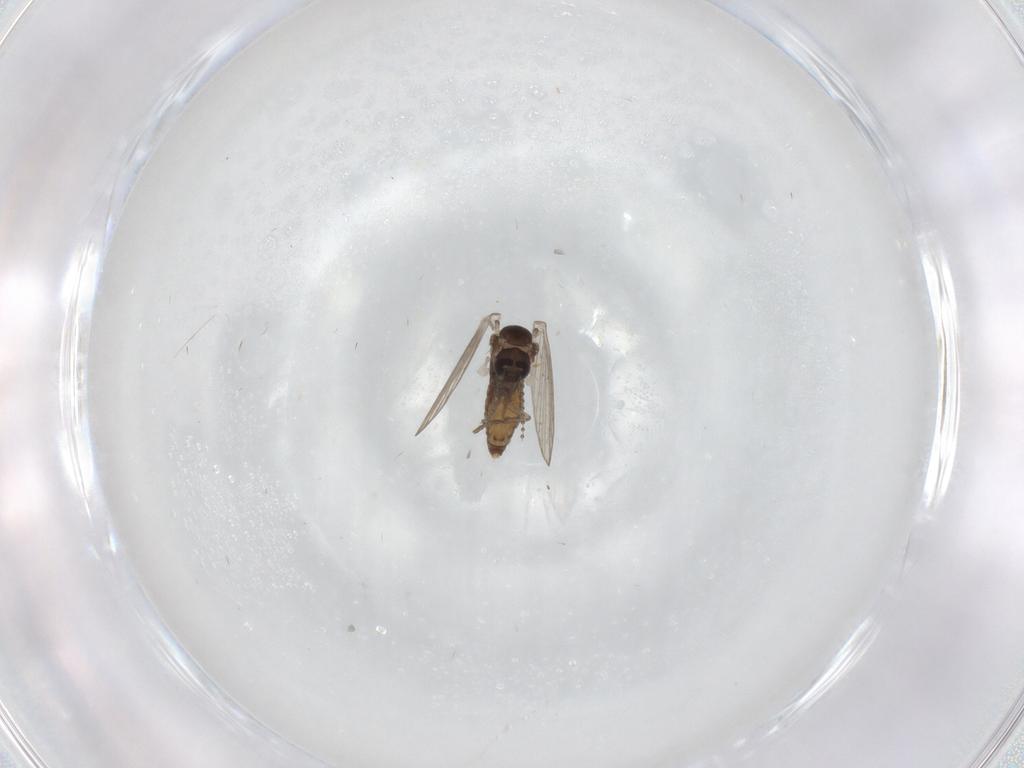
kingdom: Animalia
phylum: Arthropoda
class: Insecta
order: Diptera
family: Psychodidae
